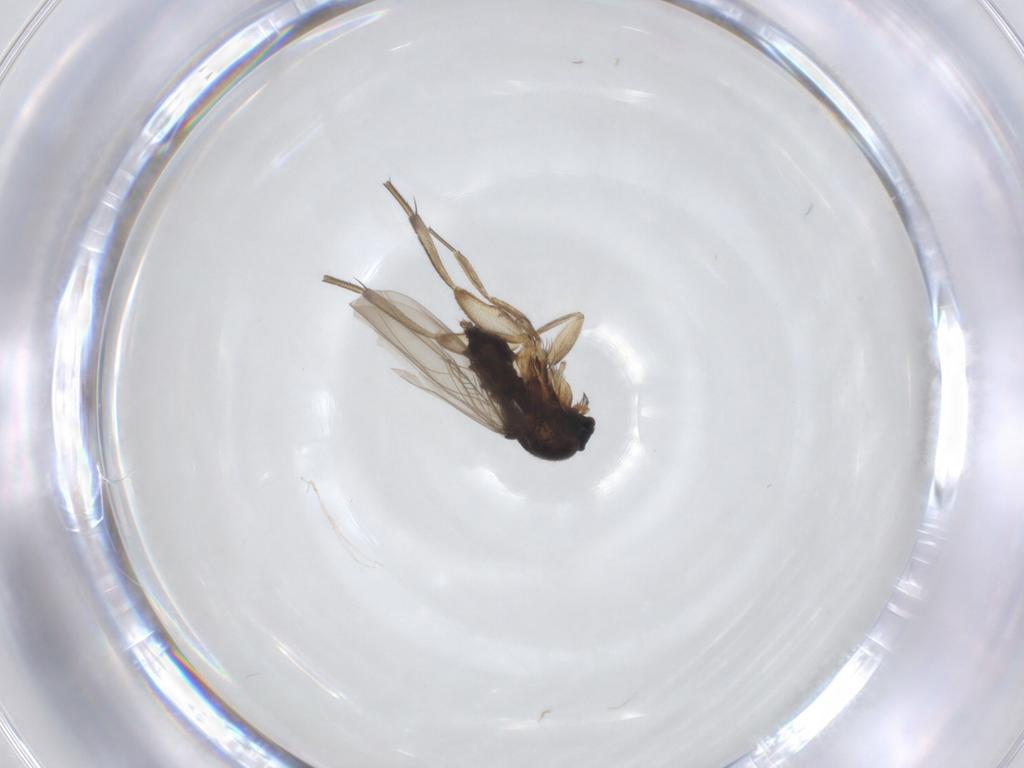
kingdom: Animalia
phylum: Arthropoda
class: Insecta
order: Diptera
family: Phoridae
